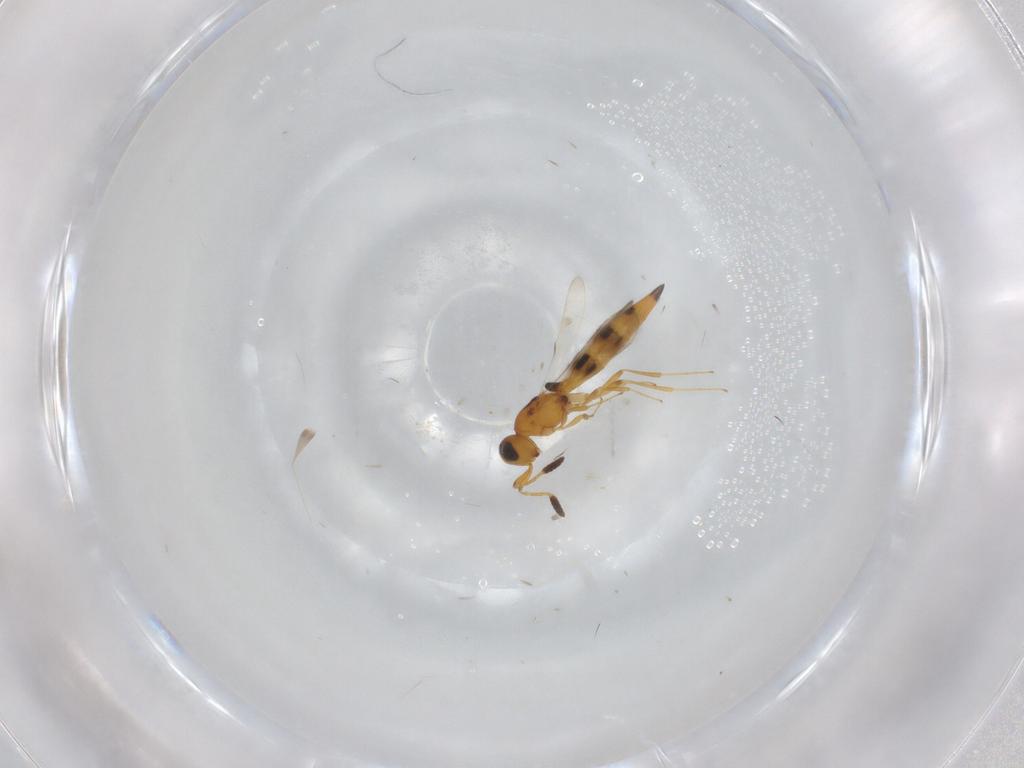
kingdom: Animalia
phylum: Arthropoda
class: Insecta
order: Hymenoptera
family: Scelionidae
